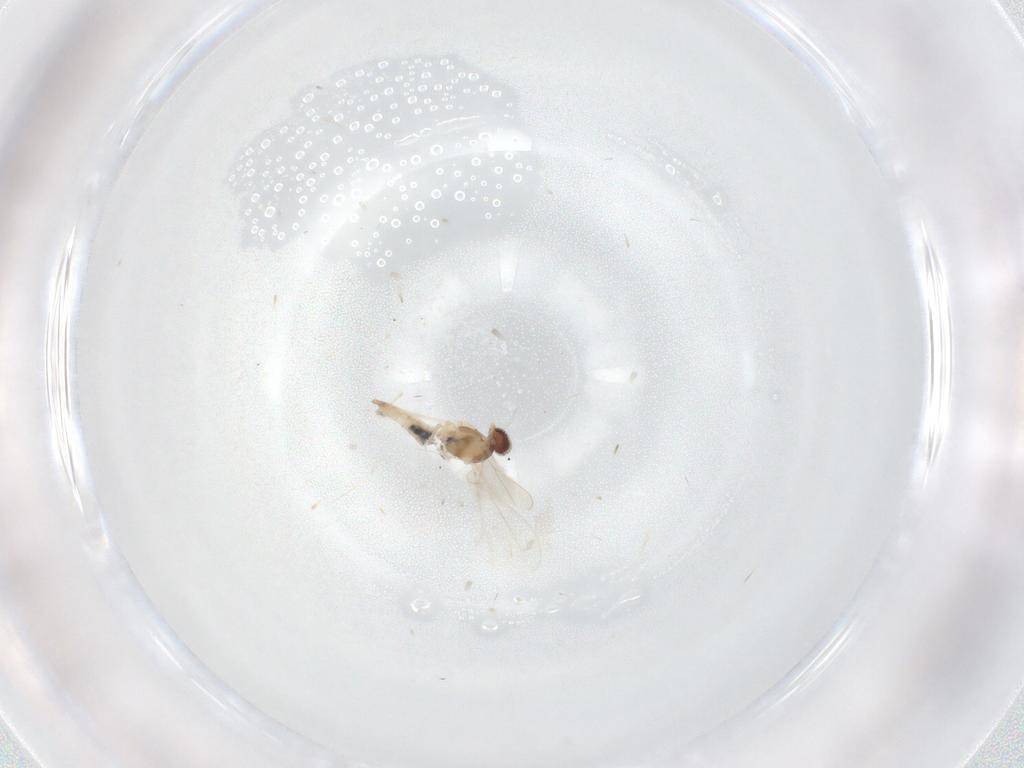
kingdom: Animalia
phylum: Arthropoda
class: Insecta
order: Diptera
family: Cecidomyiidae
